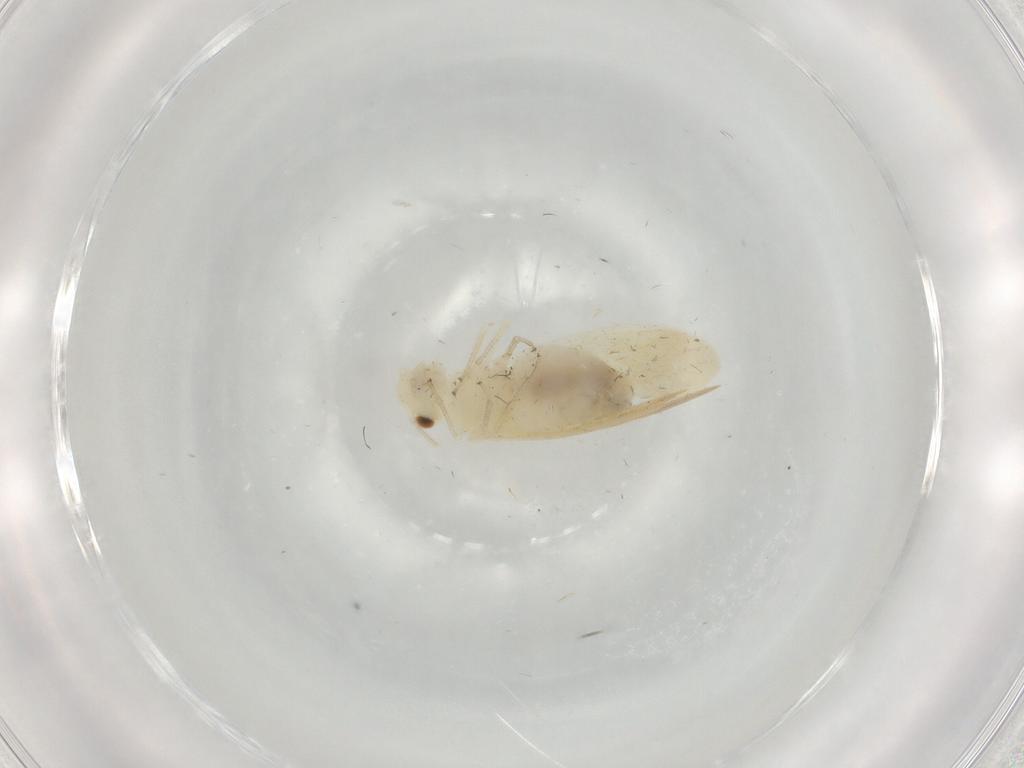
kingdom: Animalia
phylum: Arthropoda
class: Insecta
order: Psocodea
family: Caeciliusidae
